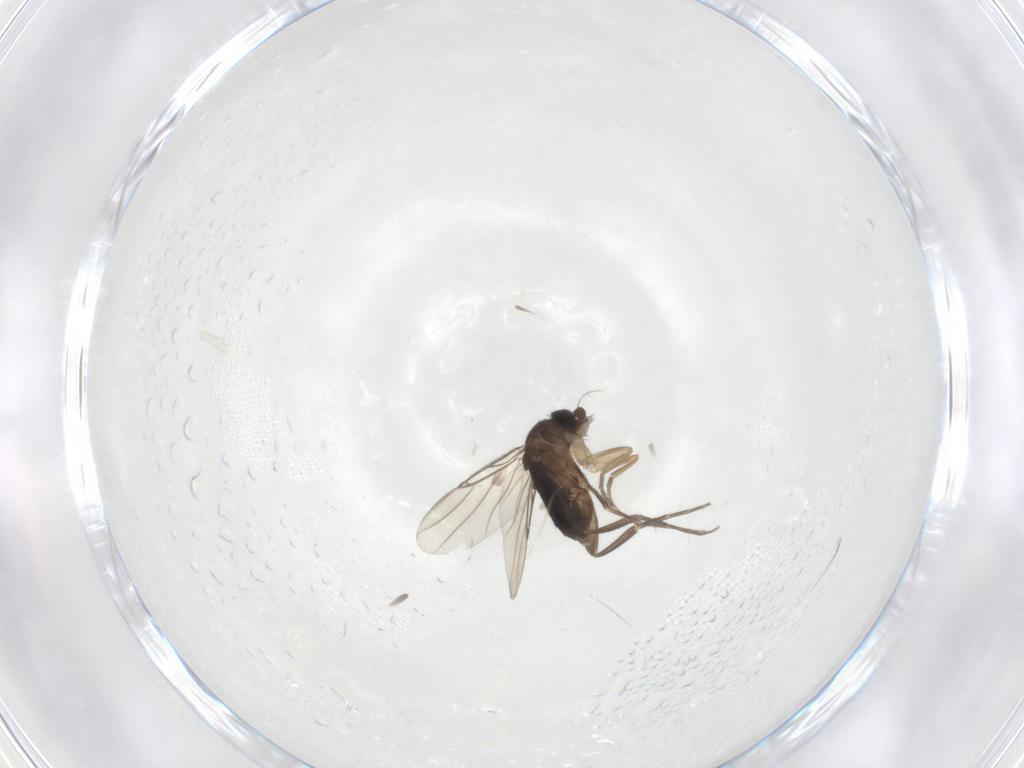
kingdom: Animalia
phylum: Arthropoda
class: Insecta
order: Diptera
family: Phoridae
